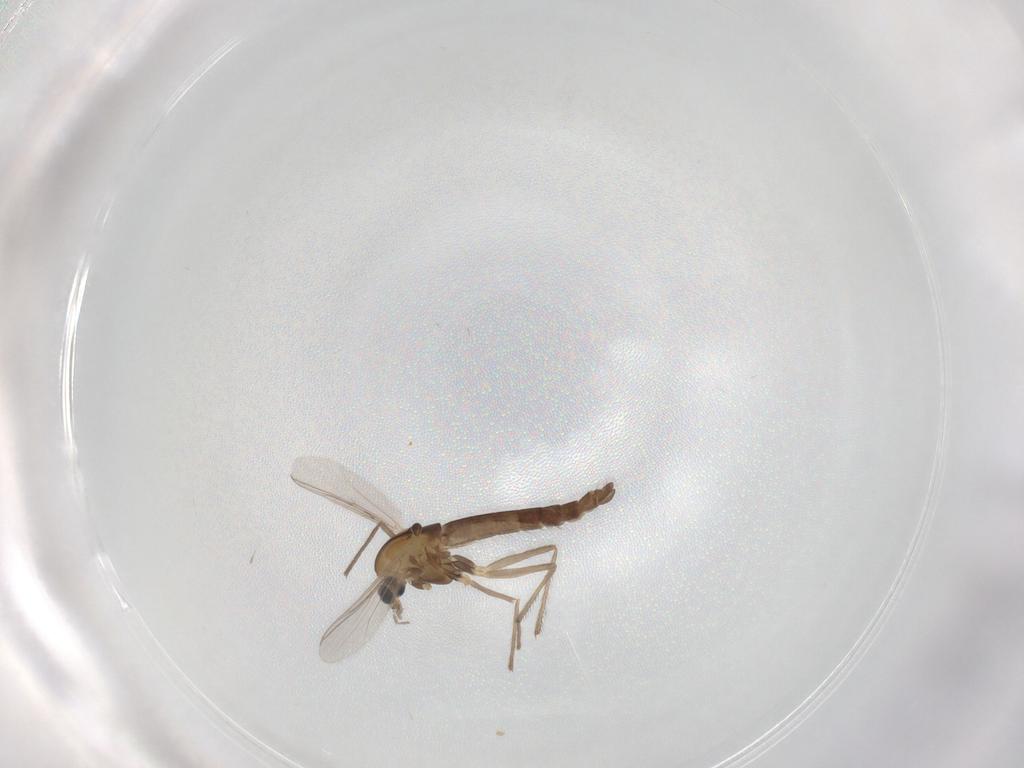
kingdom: Animalia
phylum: Arthropoda
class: Insecta
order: Diptera
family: Chironomidae
